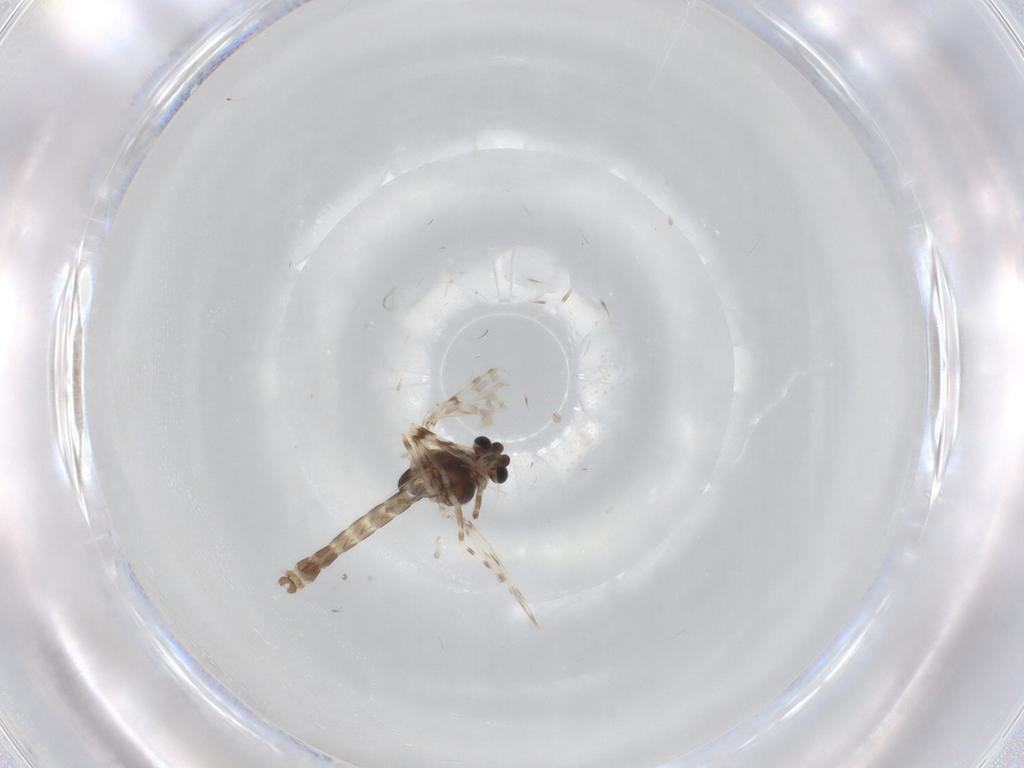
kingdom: Animalia
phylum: Arthropoda
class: Insecta
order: Diptera
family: Chironomidae
